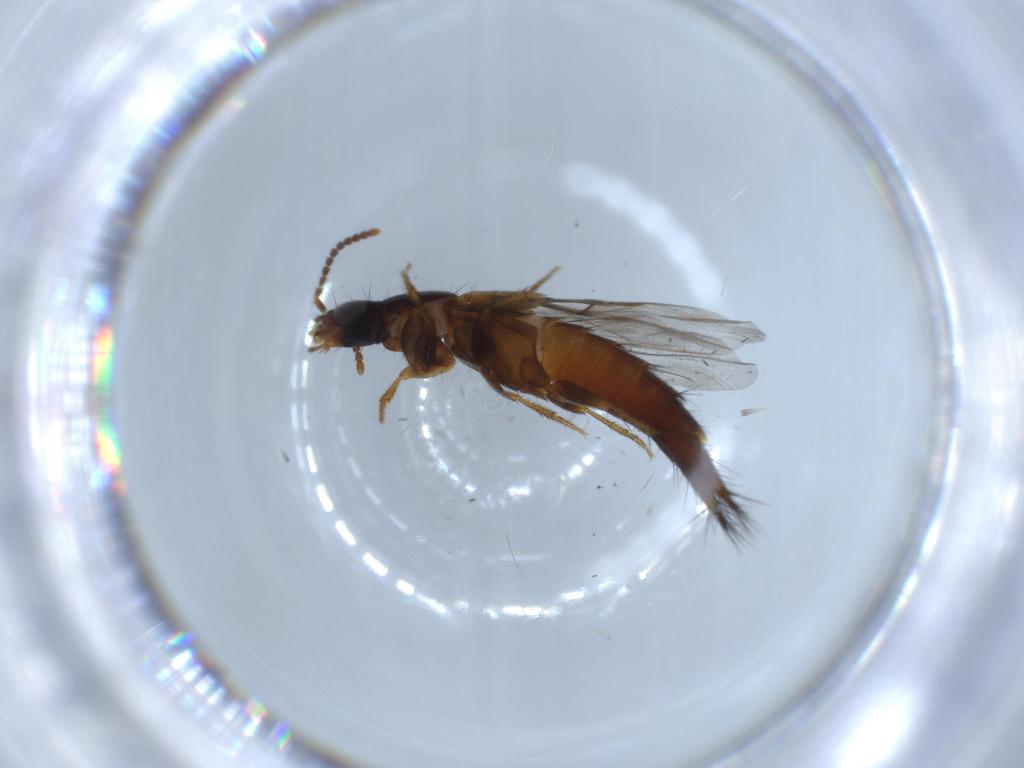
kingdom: Animalia
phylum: Arthropoda
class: Insecta
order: Coleoptera
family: Staphylinidae
